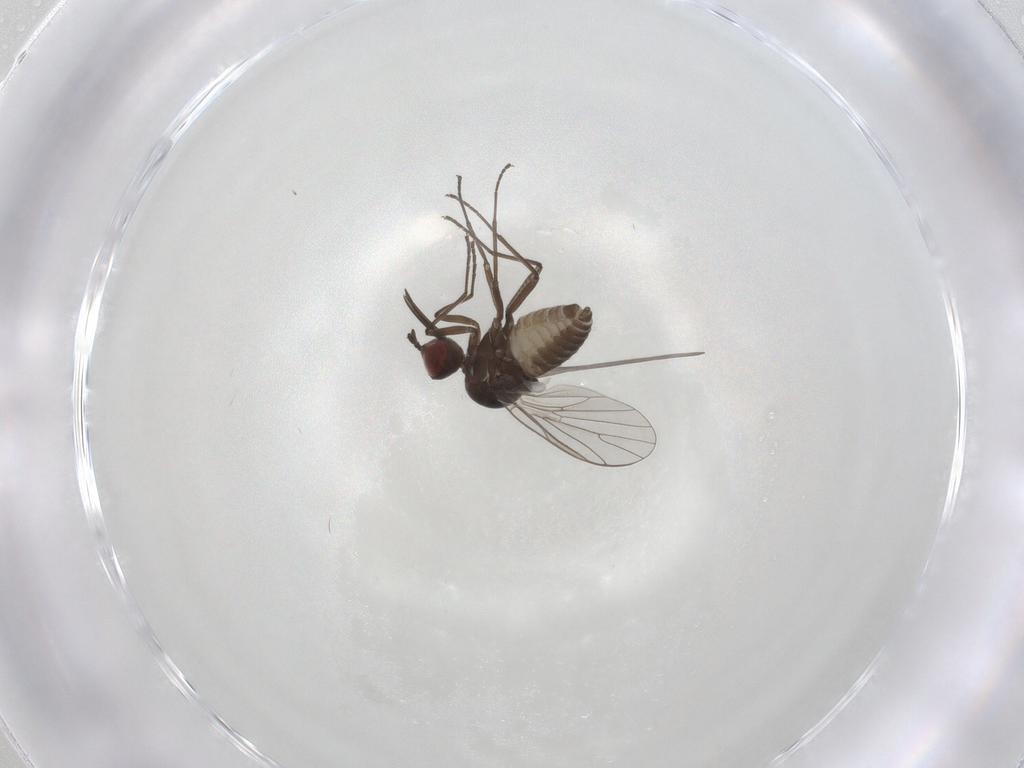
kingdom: Animalia
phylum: Arthropoda
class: Insecta
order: Diptera
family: Bombyliidae
